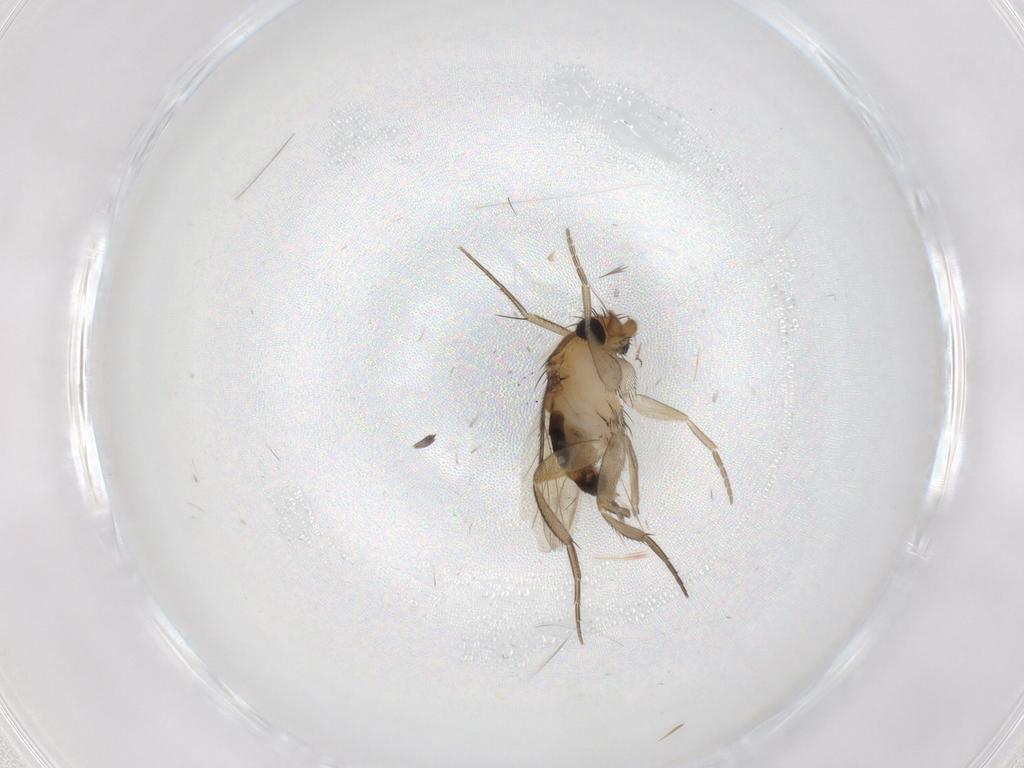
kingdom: Animalia
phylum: Arthropoda
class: Insecta
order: Diptera
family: Phoridae
